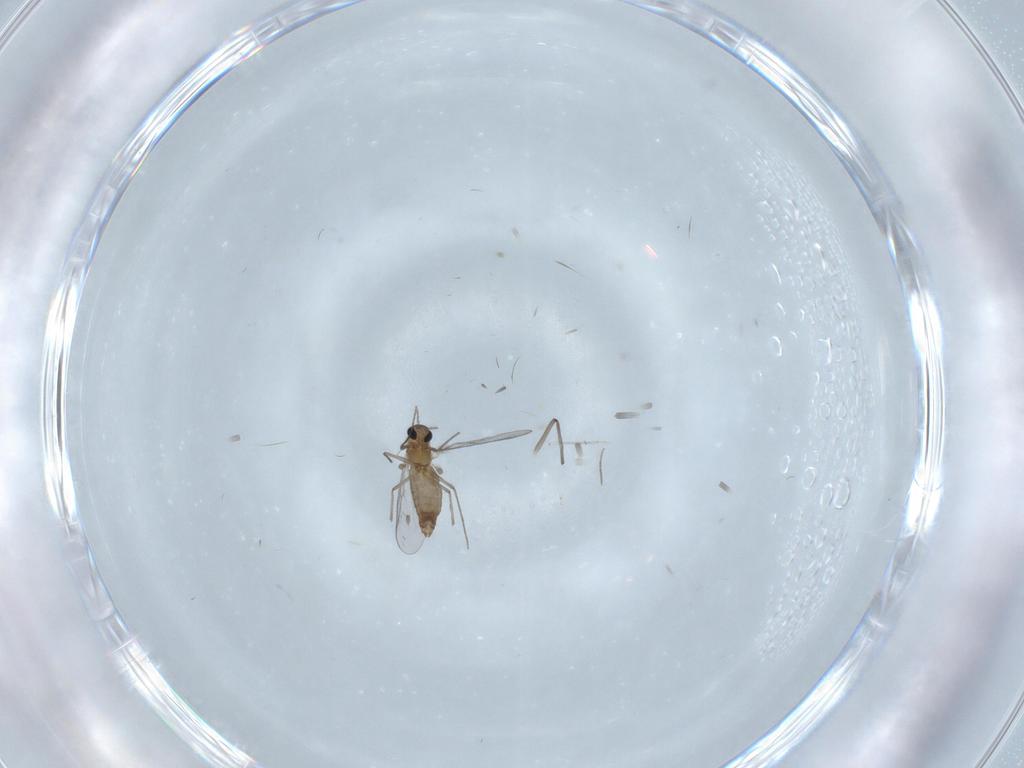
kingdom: Animalia
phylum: Arthropoda
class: Insecta
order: Diptera
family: Chironomidae
